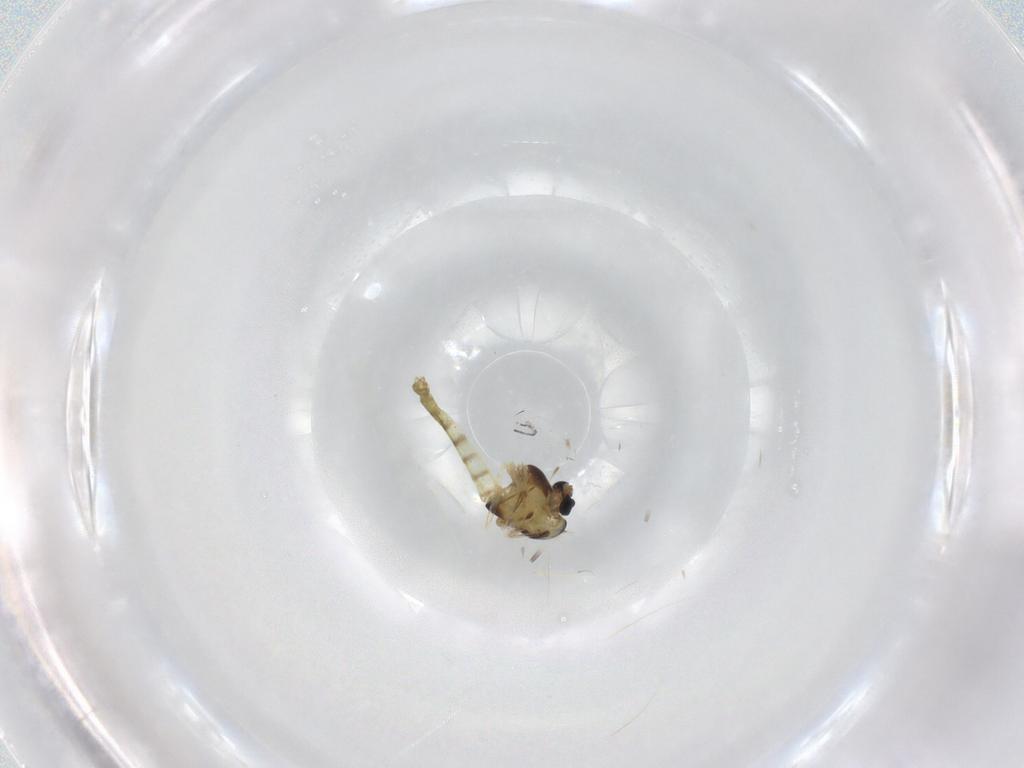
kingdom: Animalia
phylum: Arthropoda
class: Insecta
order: Diptera
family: Chironomidae
